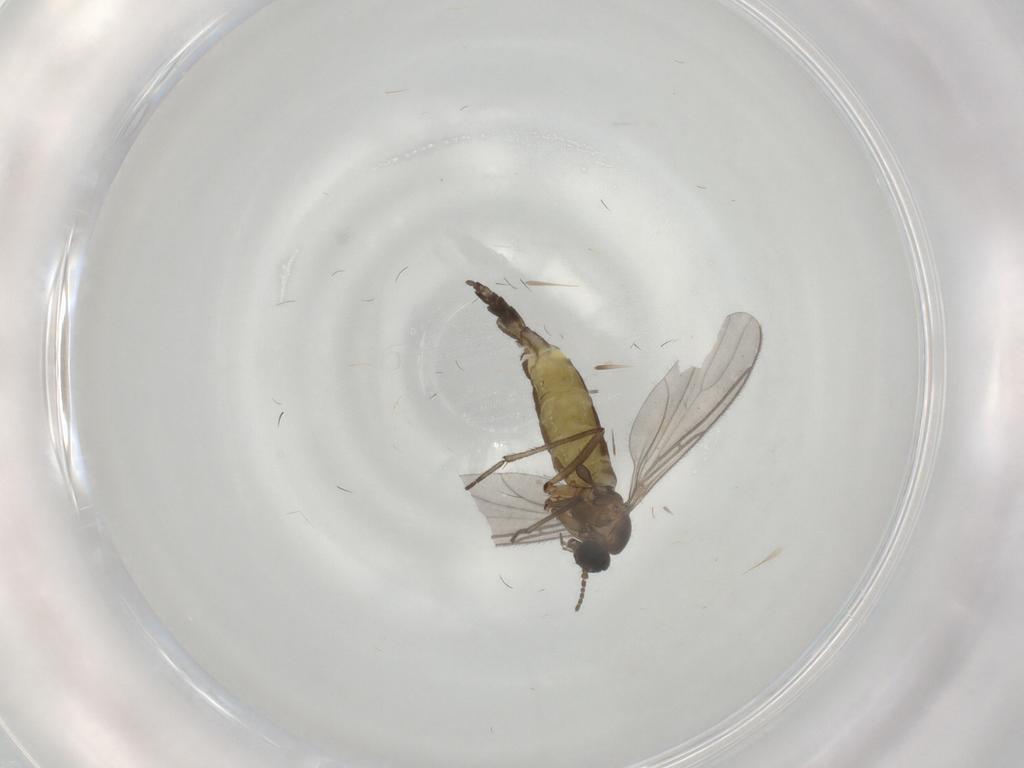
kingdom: Animalia
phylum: Arthropoda
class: Insecta
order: Diptera
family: Sciaridae
